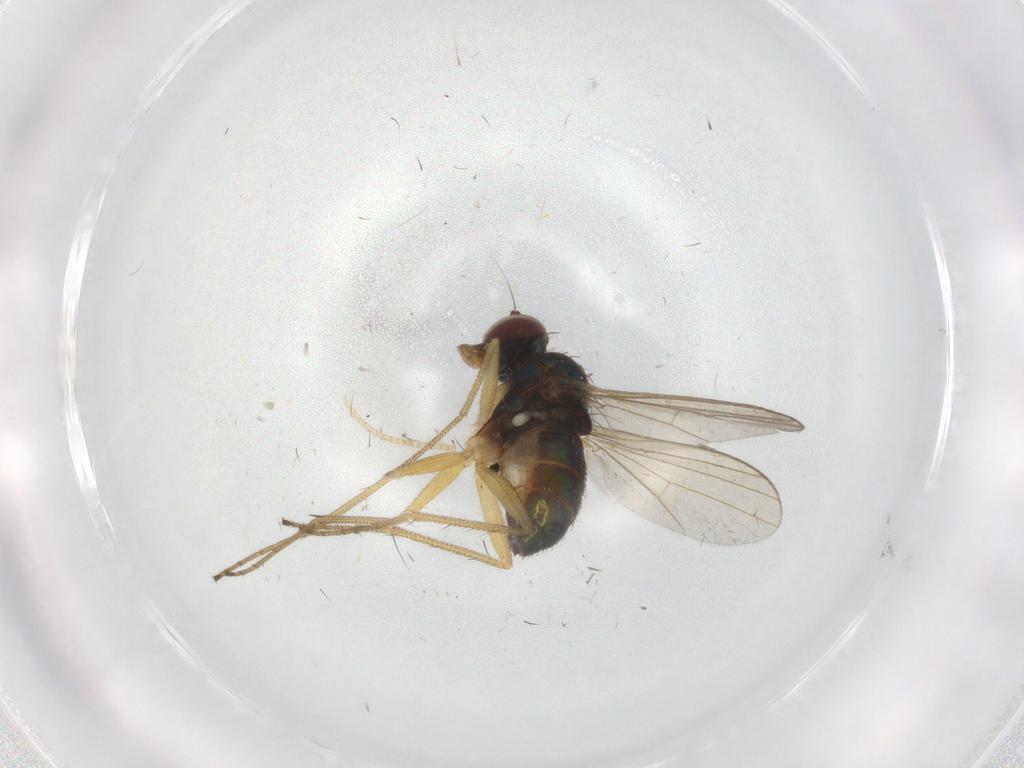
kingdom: Animalia
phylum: Arthropoda
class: Insecta
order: Diptera
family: Dolichopodidae
